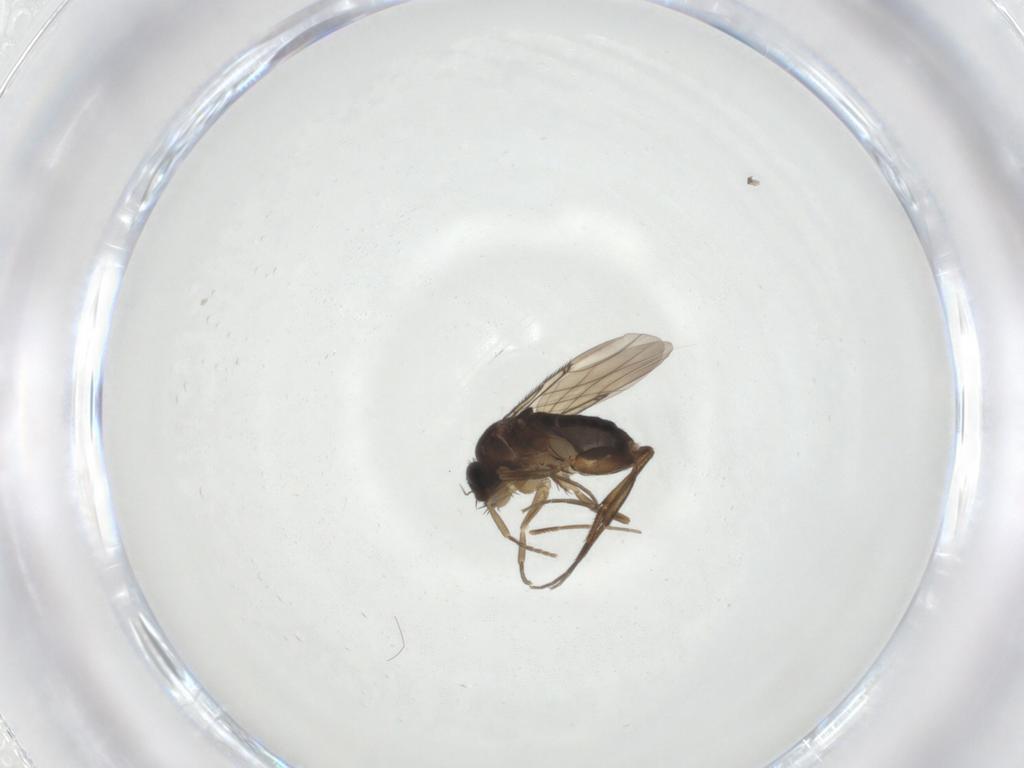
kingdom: Animalia
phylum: Arthropoda
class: Insecta
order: Diptera
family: Phoridae
